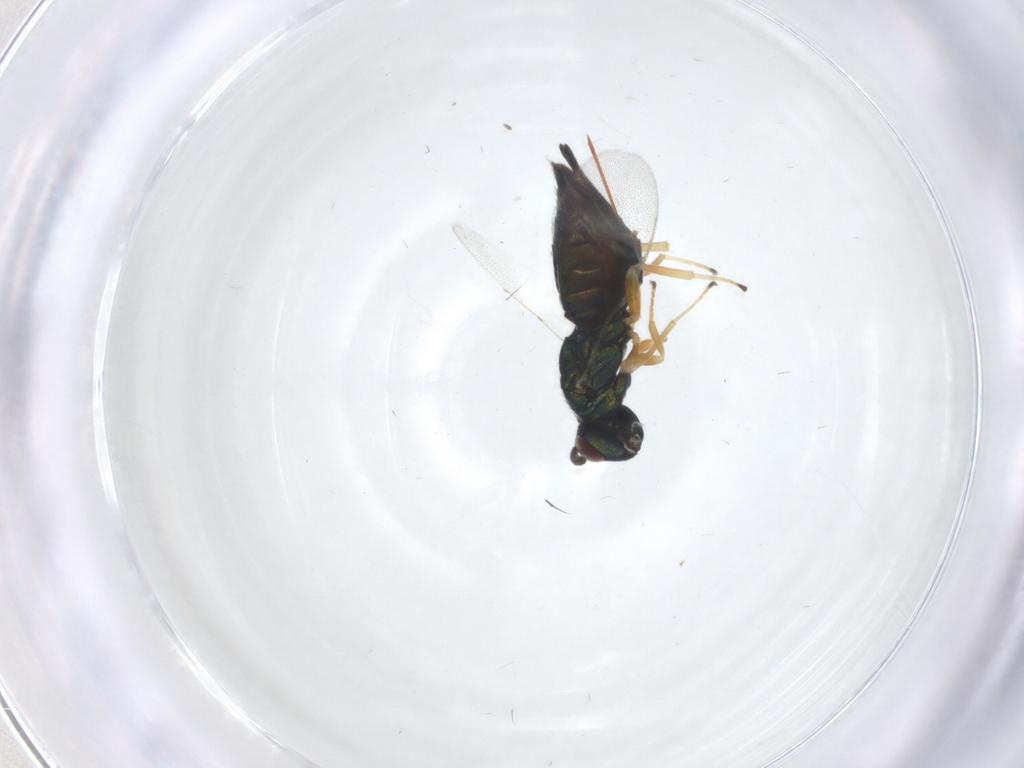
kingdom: Animalia
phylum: Arthropoda
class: Insecta
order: Hymenoptera
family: Pteromalidae
